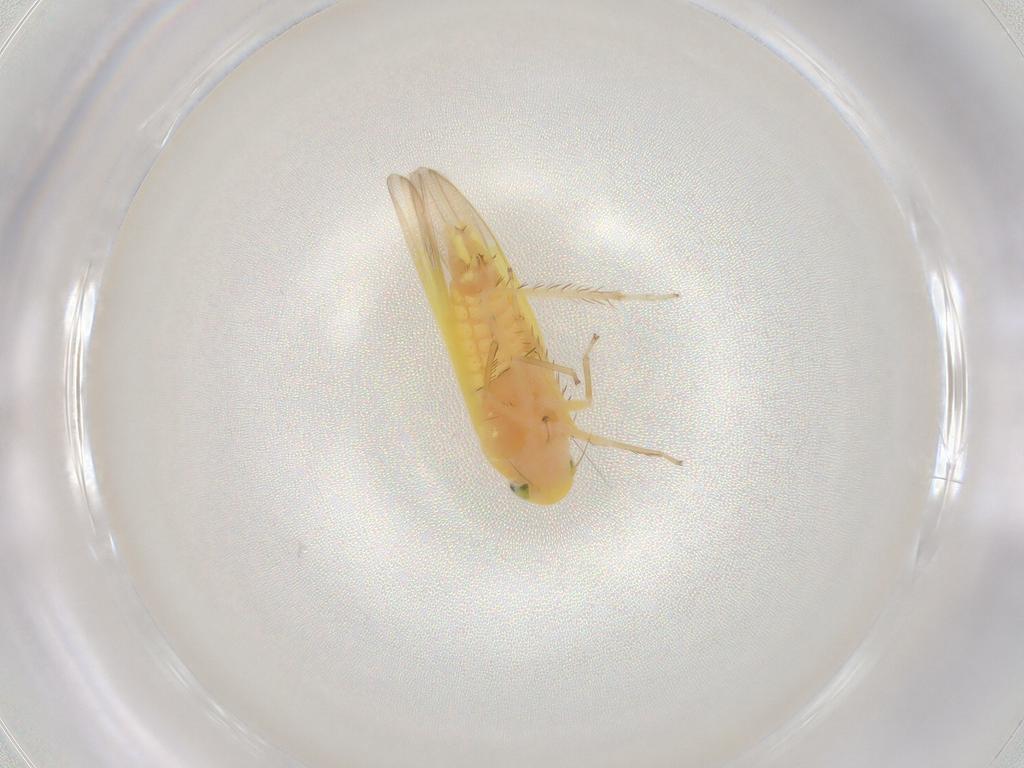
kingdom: Animalia
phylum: Arthropoda
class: Insecta
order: Hemiptera
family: Cicadellidae
